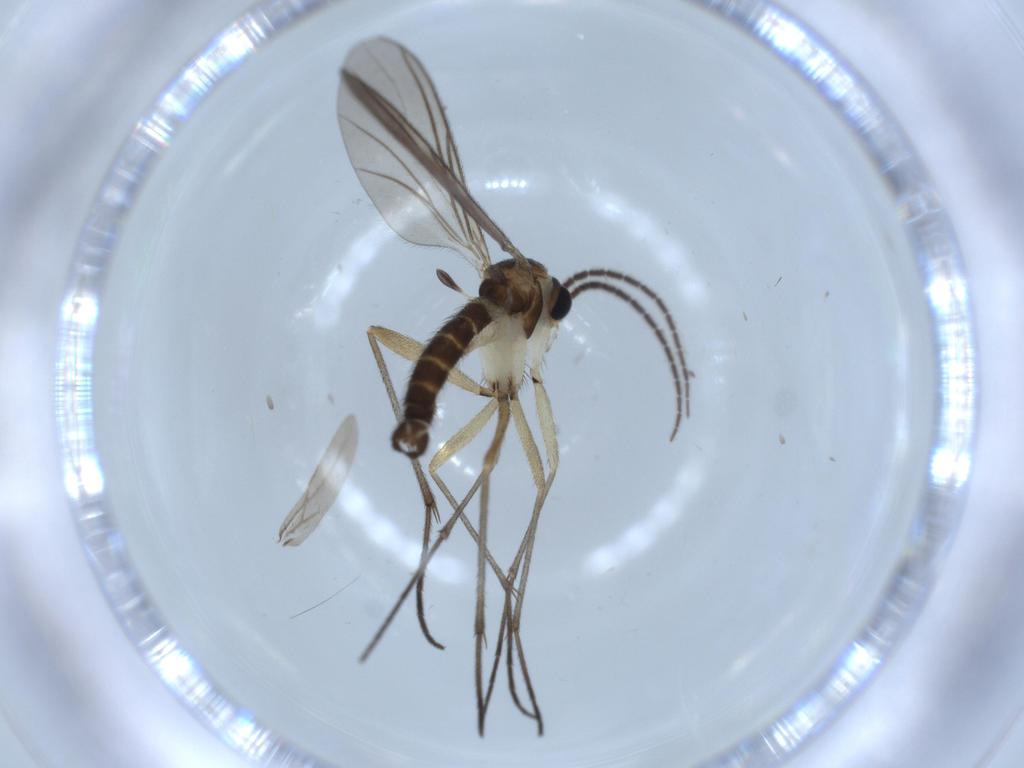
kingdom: Animalia
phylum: Arthropoda
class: Insecta
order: Diptera
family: Sciaridae
